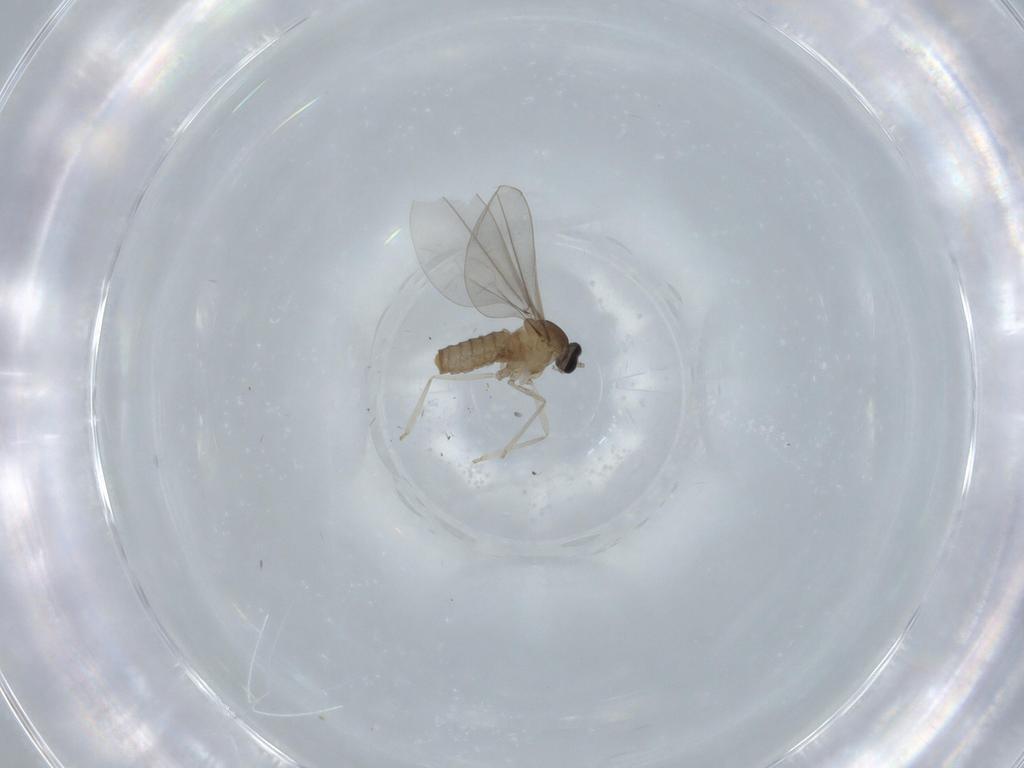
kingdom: Animalia
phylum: Arthropoda
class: Insecta
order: Diptera
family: Cecidomyiidae
